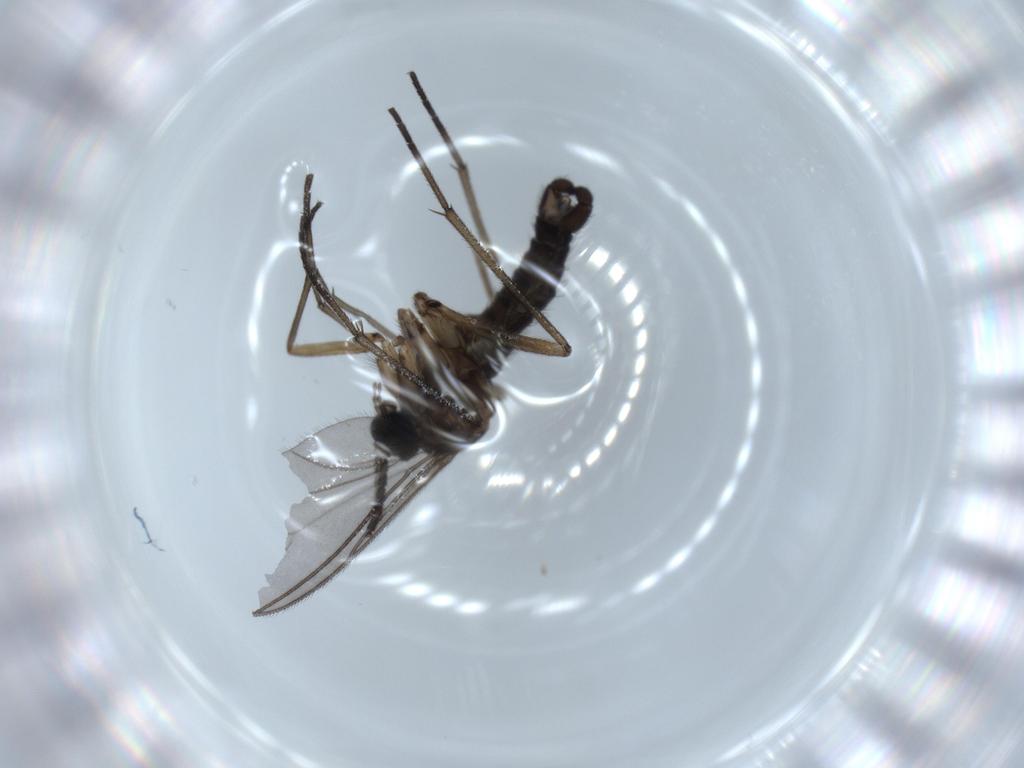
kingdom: Animalia
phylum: Arthropoda
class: Insecta
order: Diptera
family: Sciaridae
